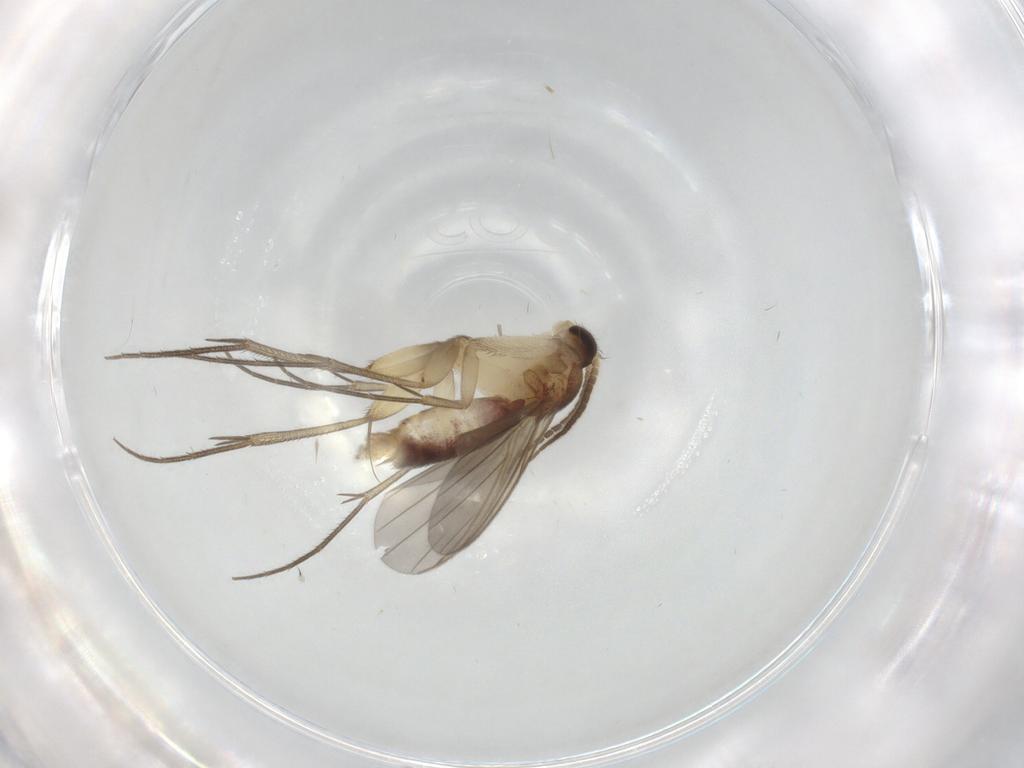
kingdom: Animalia
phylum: Arthropoda
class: Insecta
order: Diptera
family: Mycetophilidae
